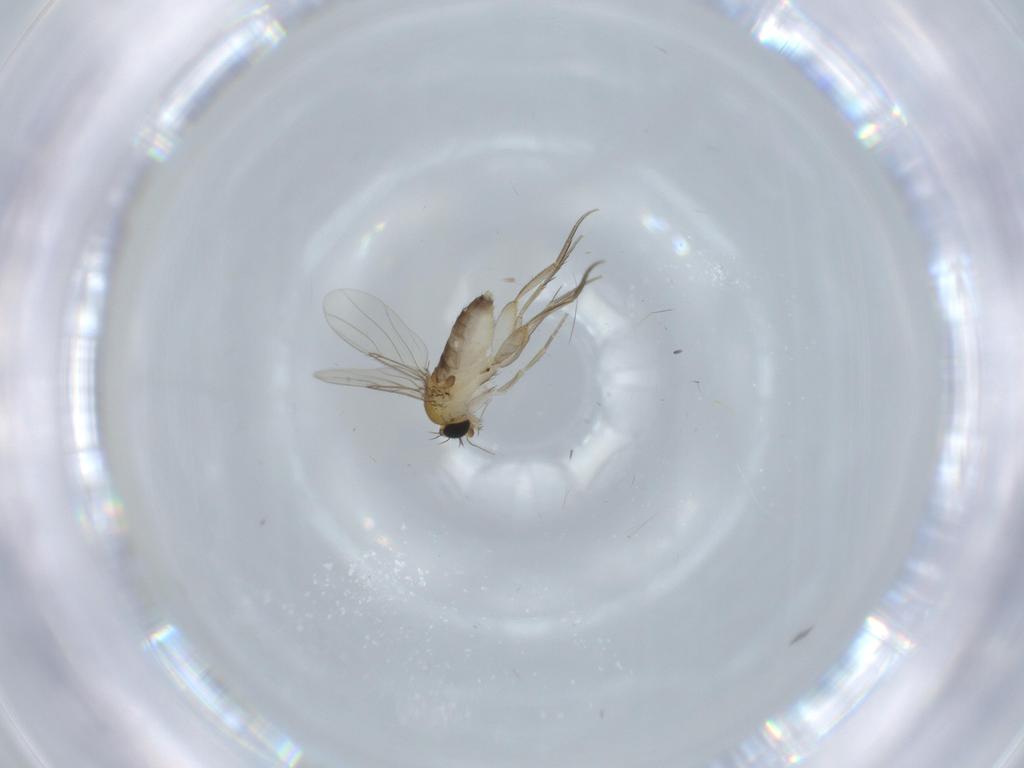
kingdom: Animalia
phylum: Arthropoda
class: Insecta
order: Diptera
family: Phoridae
